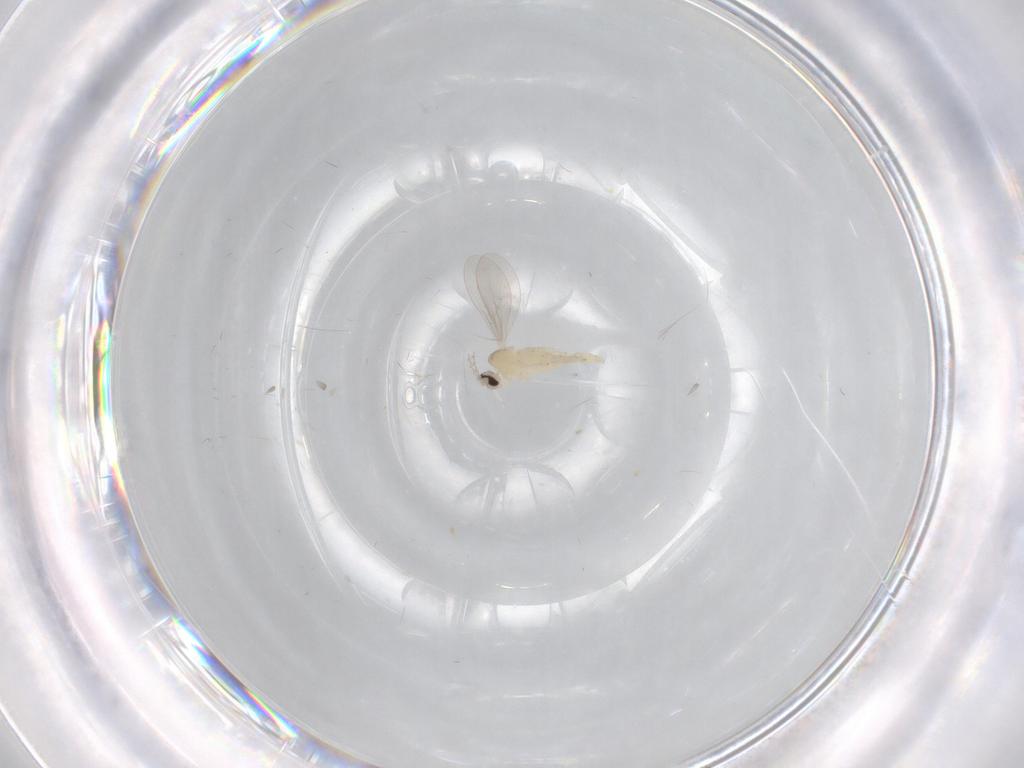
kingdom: Animalia
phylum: Arthropoda
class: Insecta
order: Diptera
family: Cecidomyiidae
